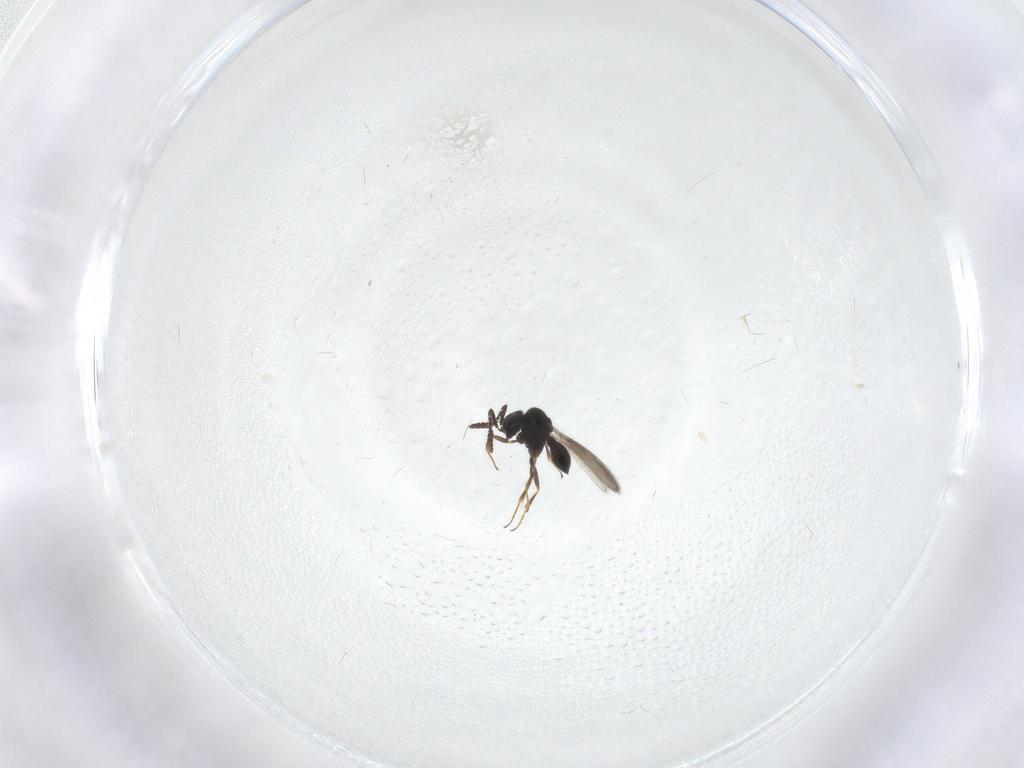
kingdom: Animalia
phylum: Arthropoda
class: Insecta
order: Hymenoptera
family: Scelionidae
